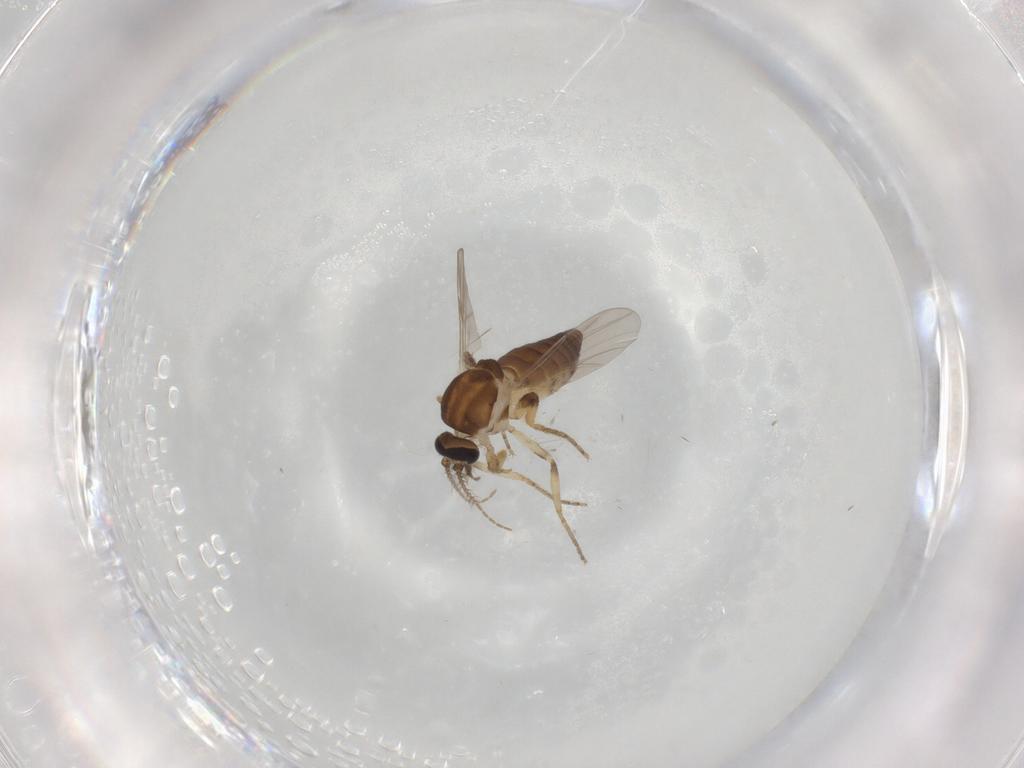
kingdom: Animalia
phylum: Arthropoda
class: Insecta
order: Diptera
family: Ceratopogonidae
